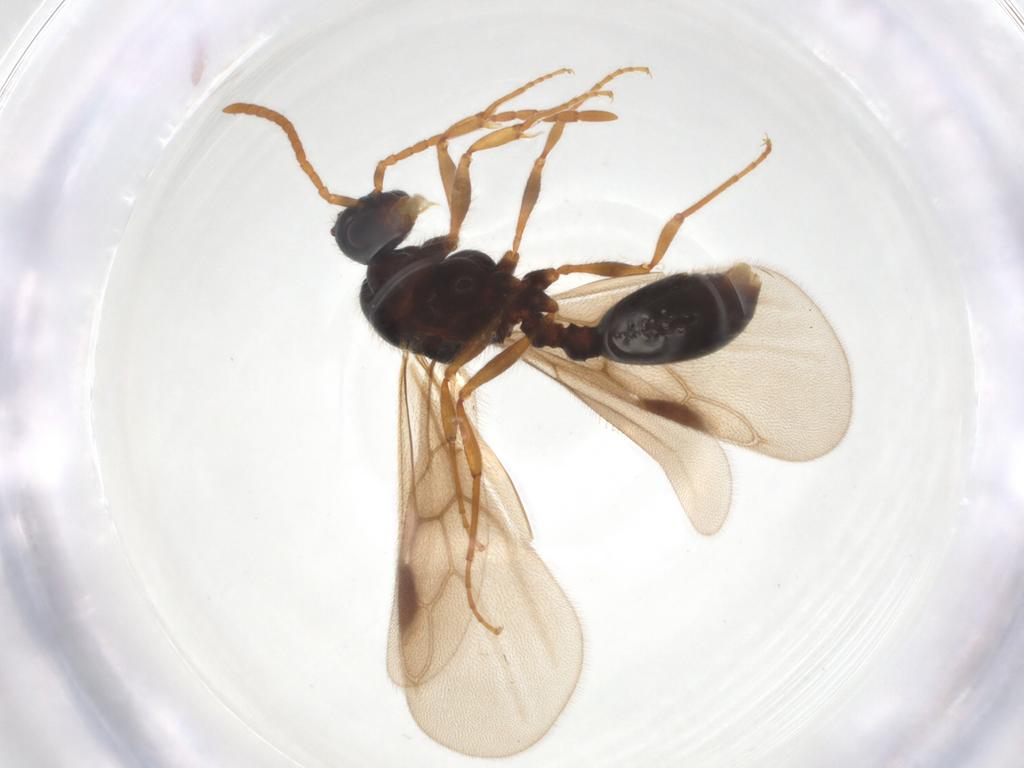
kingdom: Animalia
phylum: Arthropoda
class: Insecta
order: Hymenoptera
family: Formicidae
